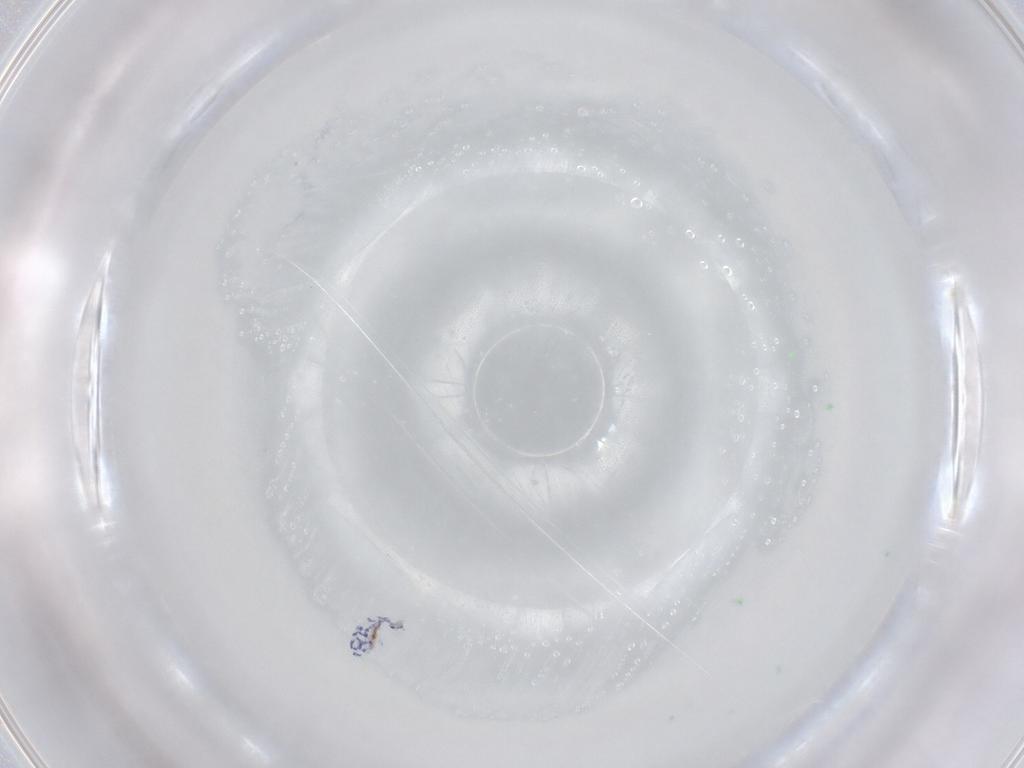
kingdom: Animalia
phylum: Arthropoda
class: Collembola
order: Entomobryomorpha
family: Entomobryidae
